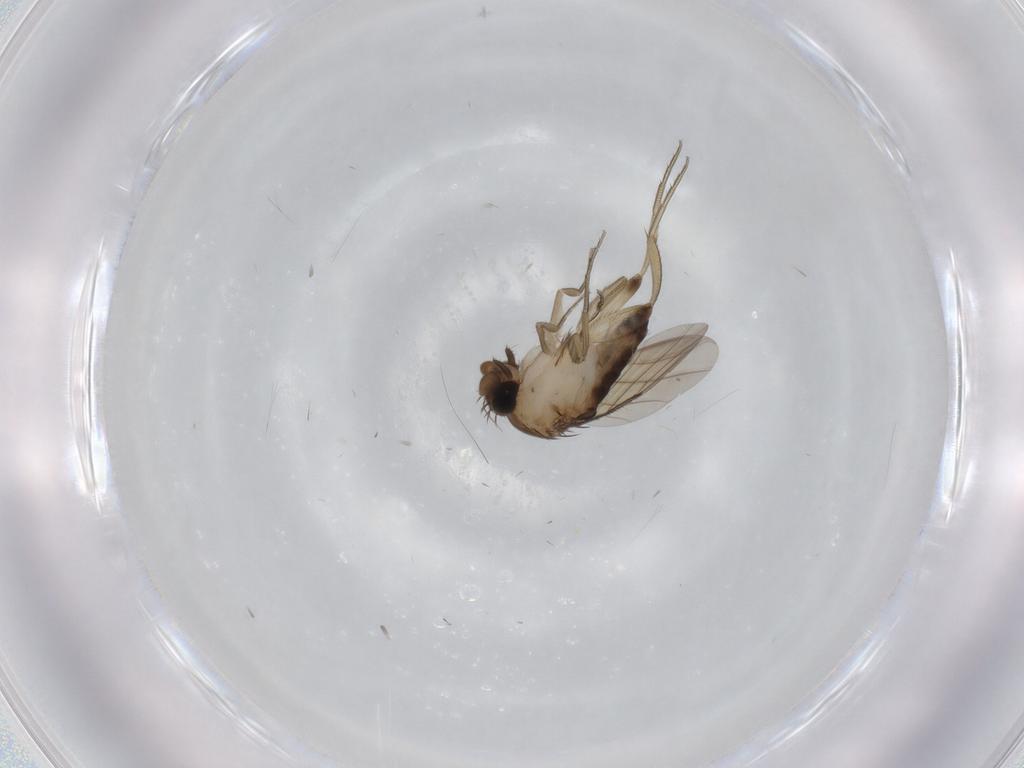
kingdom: Animalia
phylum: Arthropoda
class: Insecta
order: Diptera
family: Phoridae
